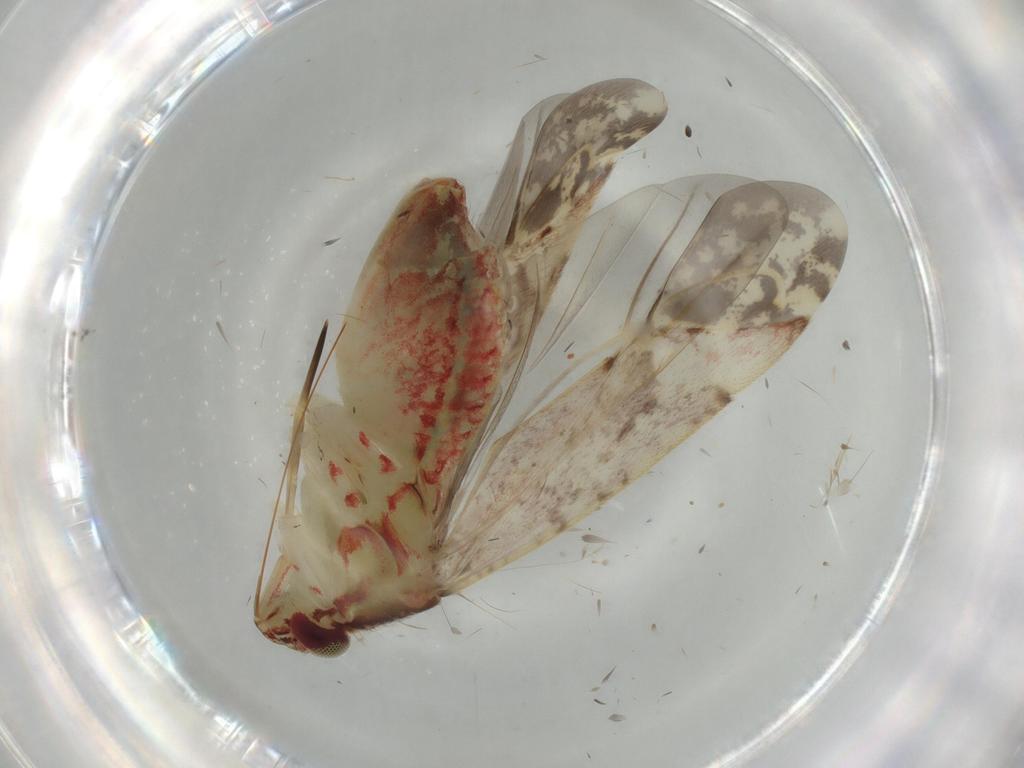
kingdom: Animalia
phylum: Arthropoda
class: Insecta
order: Hemiptera
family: Miridae
